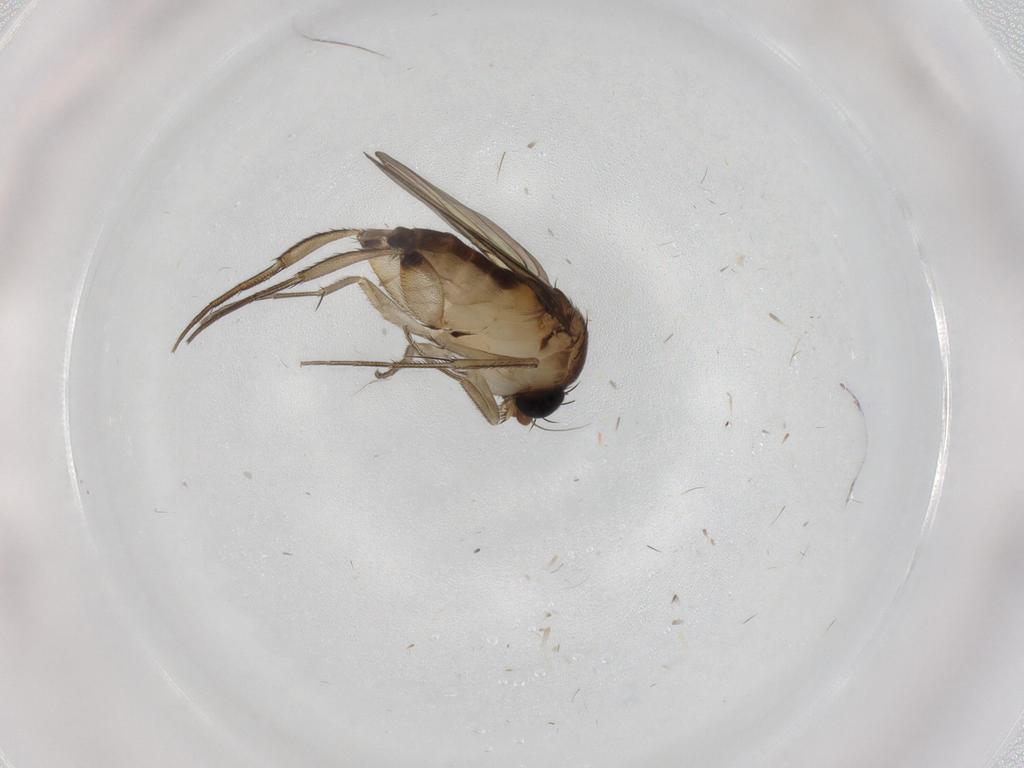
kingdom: Animalia
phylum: Arthropoda
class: Insecta
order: Diptera
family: Phoridae
